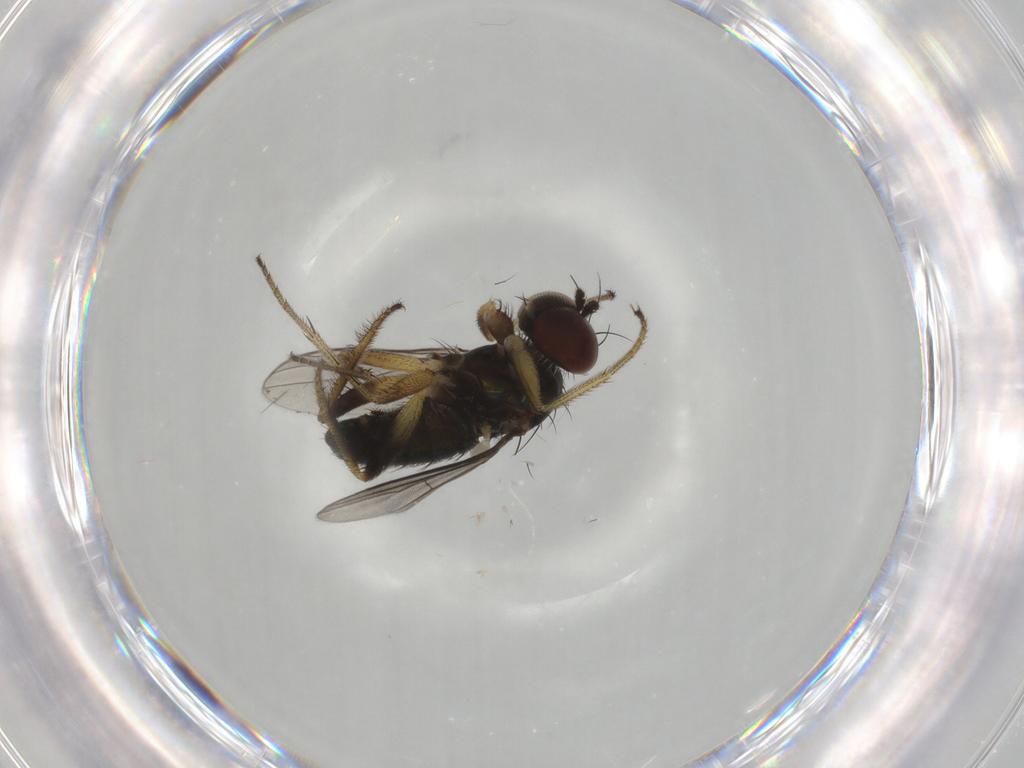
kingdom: Animalia
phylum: Arthropoda
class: Insecta
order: Diptera
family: Dolichopodidae
